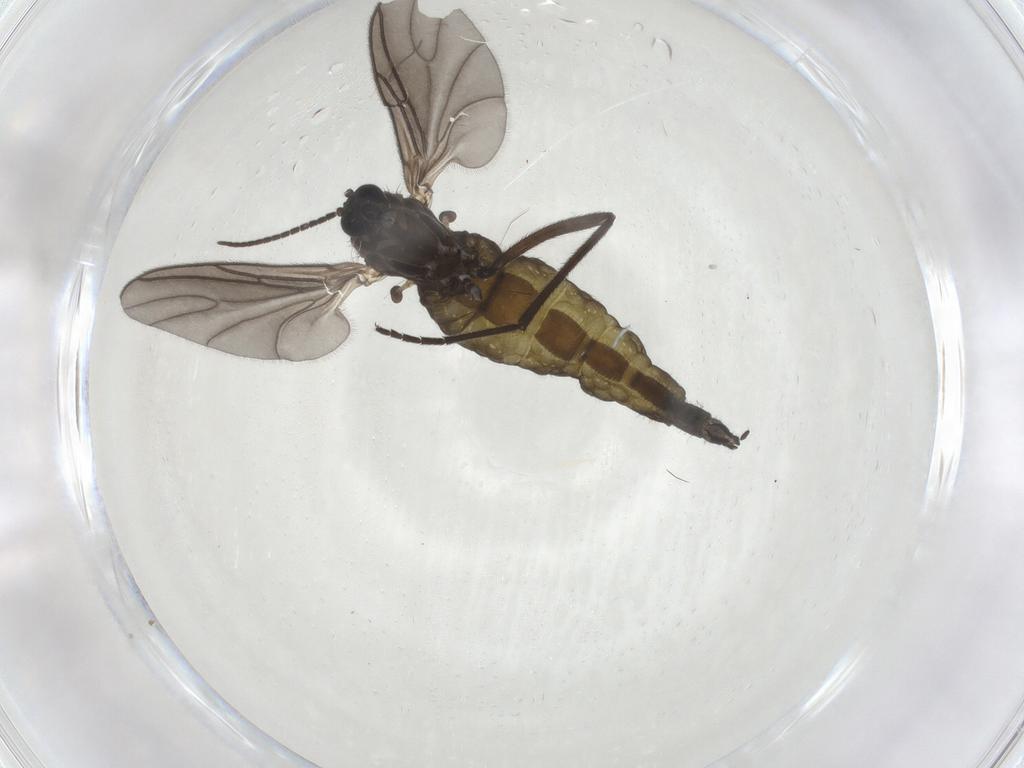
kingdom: Animalia
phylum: Arthropoda
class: Insecta
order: Diptera
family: Sciaridae
